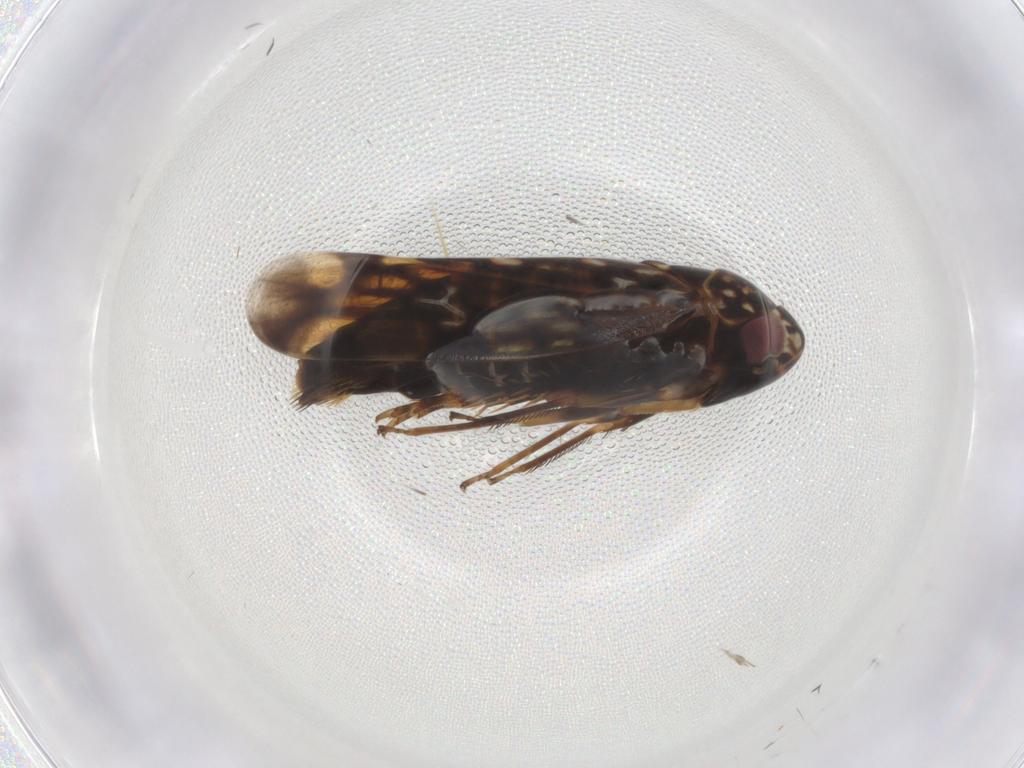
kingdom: Animalia
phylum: Arthropoda
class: Insecta
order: Hemiptera
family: Cicadellidae
